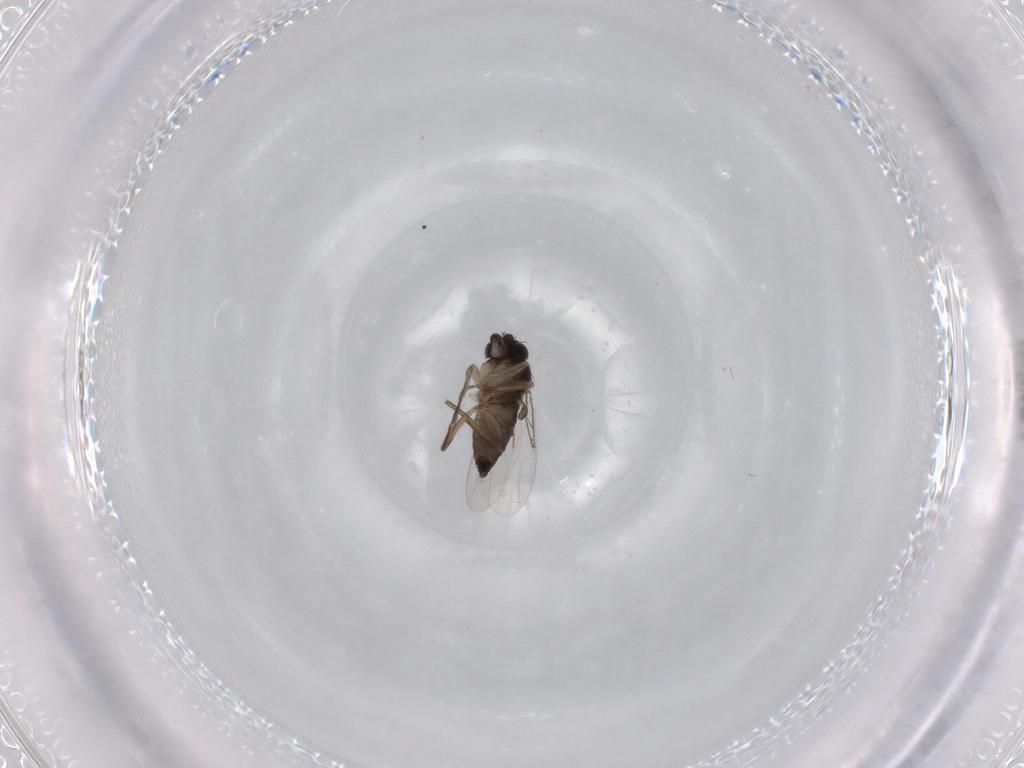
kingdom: Animalia
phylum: Arthropoda
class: Insecta
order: Diptera
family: Phoridae
